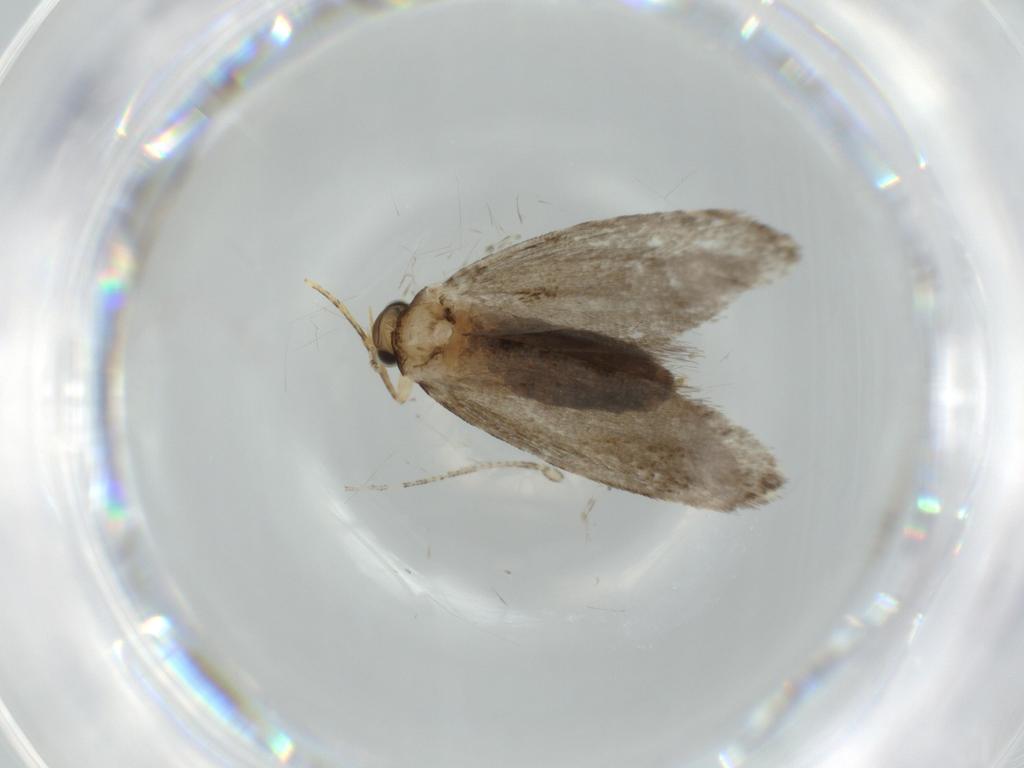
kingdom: Animalia
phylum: Arthropoda
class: Insecta
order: Lepidoptera
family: Tineidae
